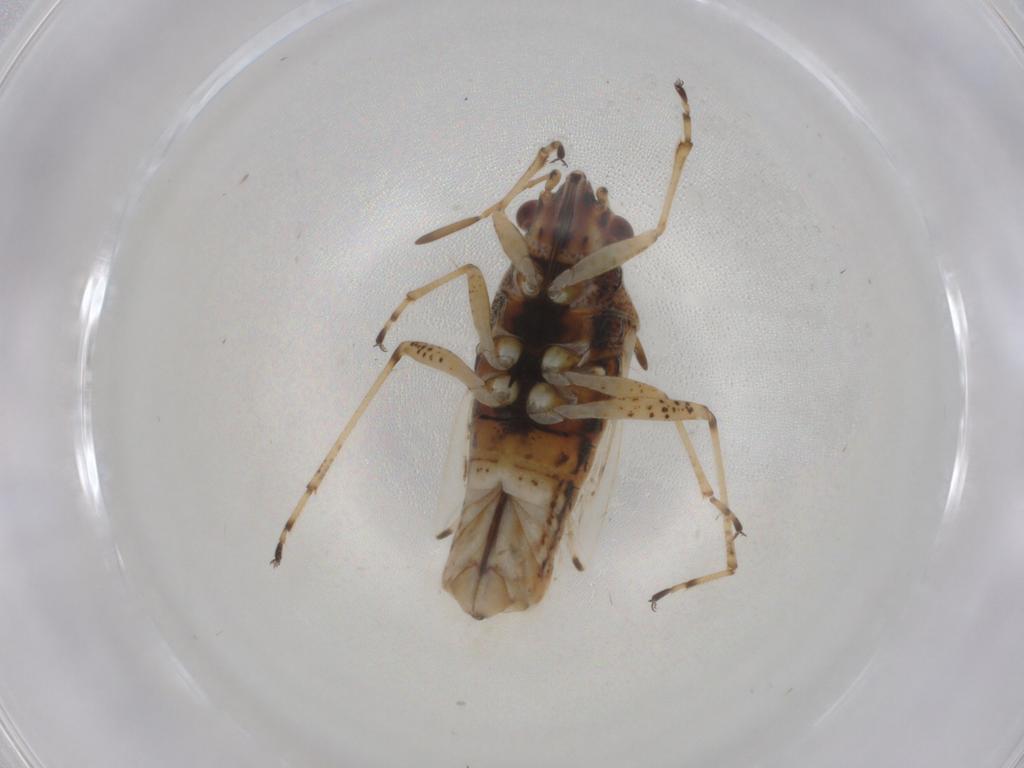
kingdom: Animalia
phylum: Arthropoda
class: Insecta
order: Hemiptera
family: Lygaeidae
